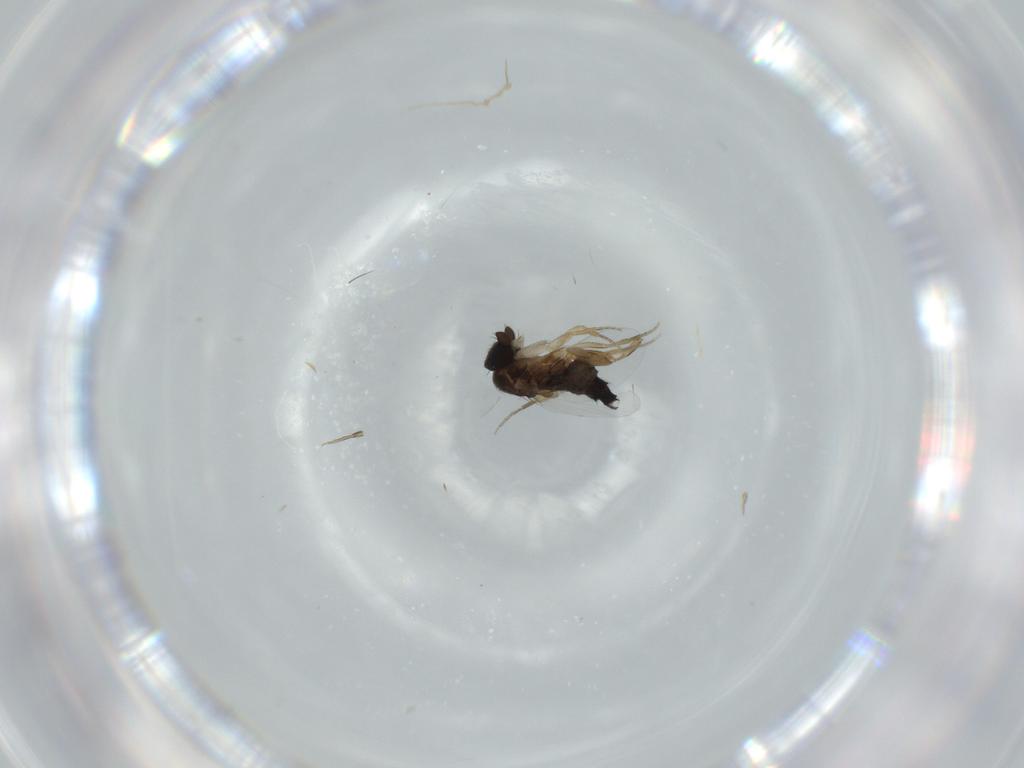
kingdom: Animalia
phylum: Arthropoda
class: Insecta
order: Diptera
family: Phoridae
